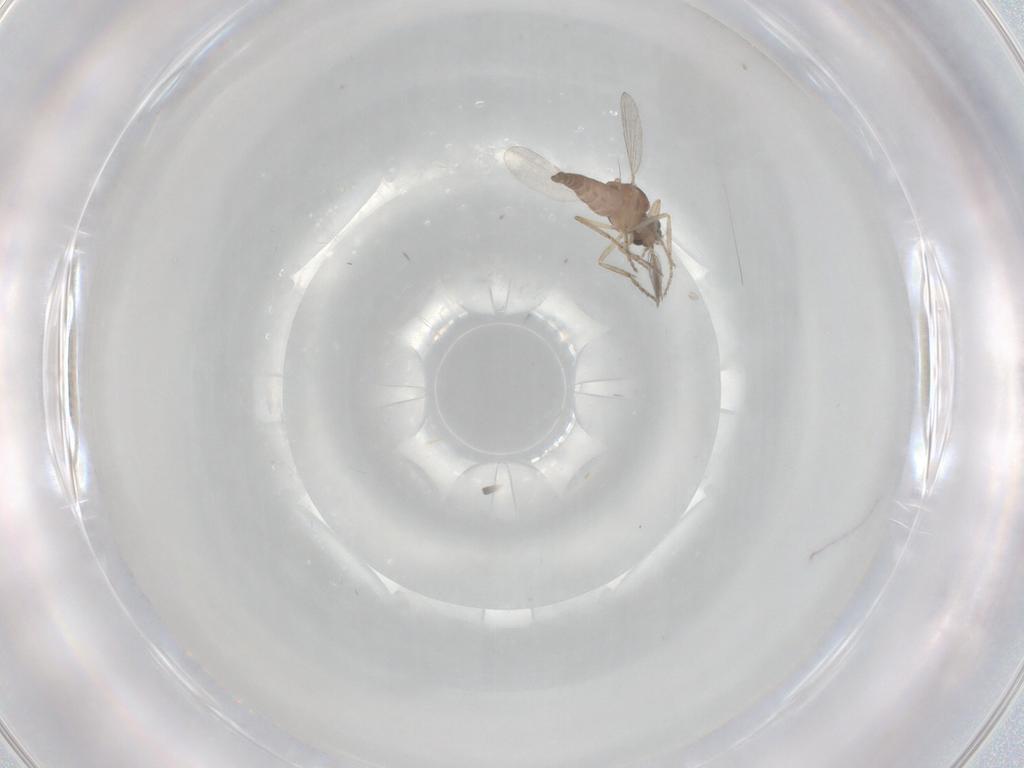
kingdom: Animalia
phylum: Arthropoda
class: Insecta
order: Diptera
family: Ceratopogonidae
